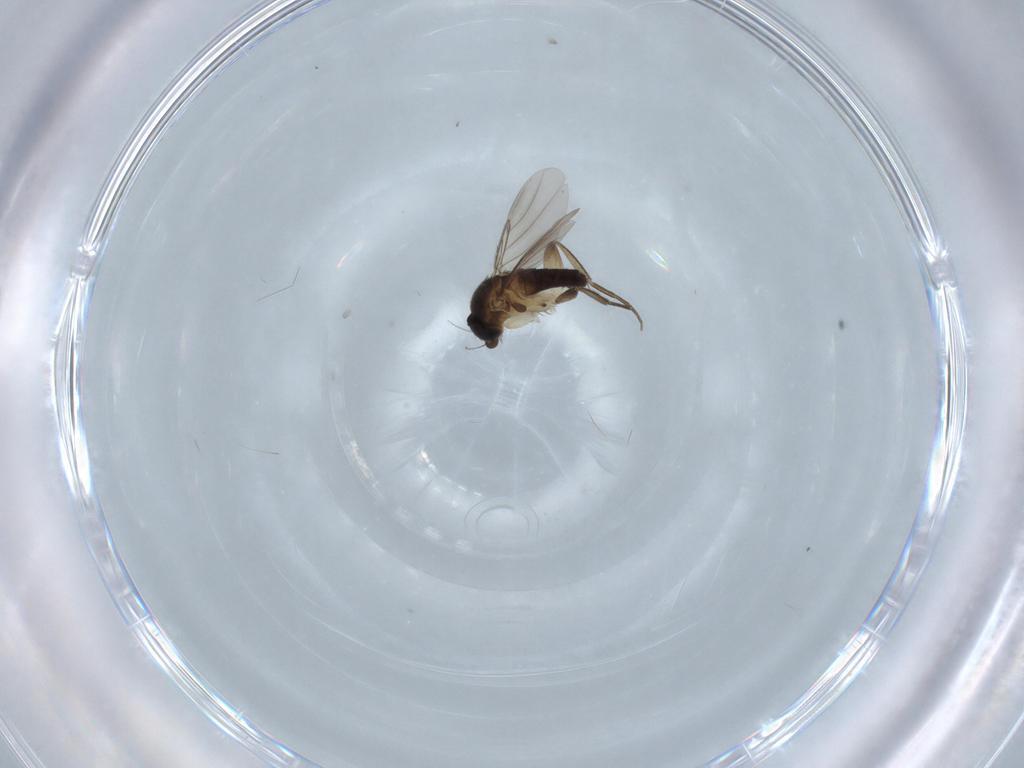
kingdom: Animalia
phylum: Arthropoda
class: Insecta
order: Diptera
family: Phoridae
